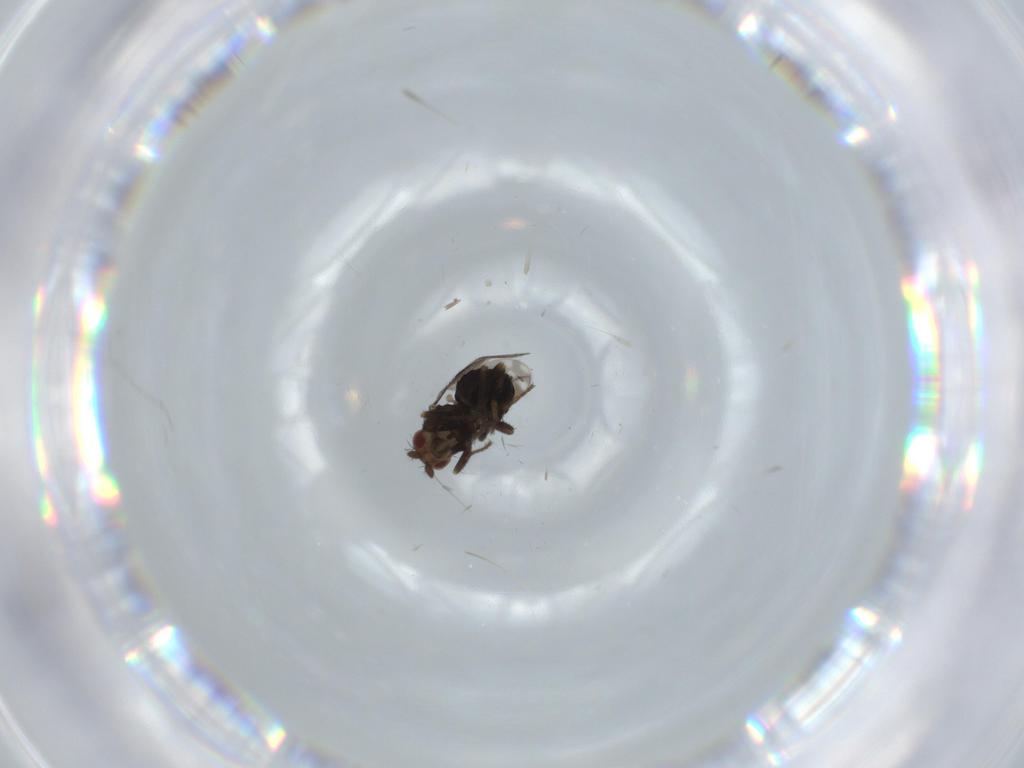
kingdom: Animalia
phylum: Arthropoda
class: Insecta
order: Diptera
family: Sphaeroceridae
